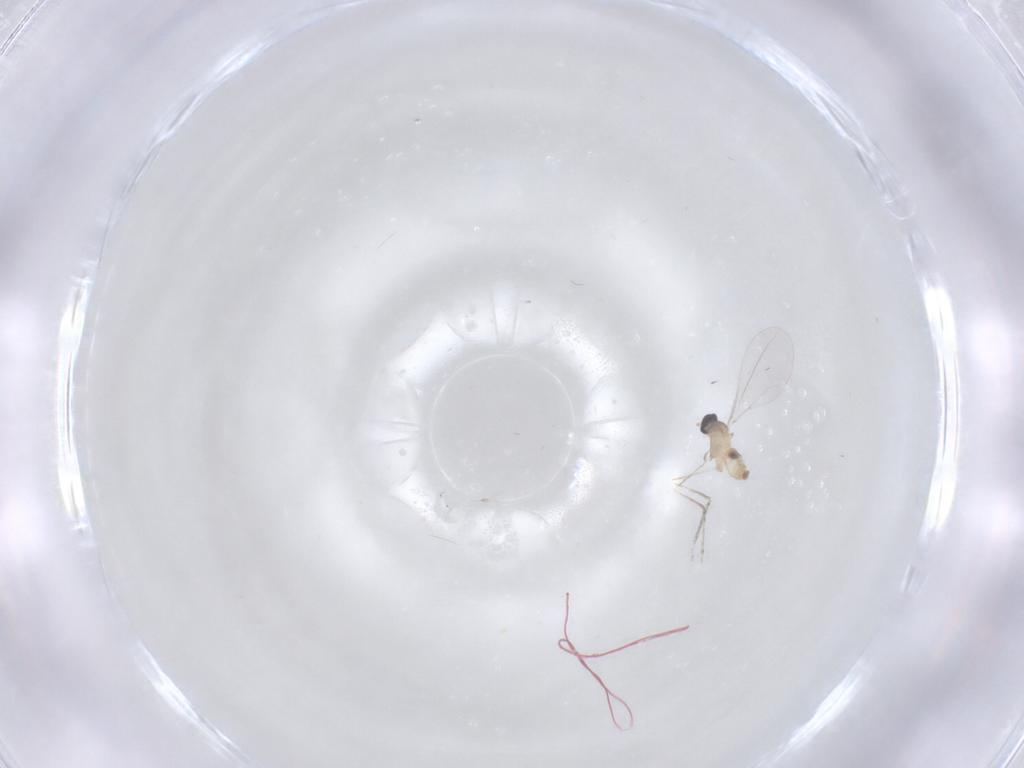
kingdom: Animalia
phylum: Arthropoda
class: Insecta
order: Diptera
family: Cecidomyiidae
